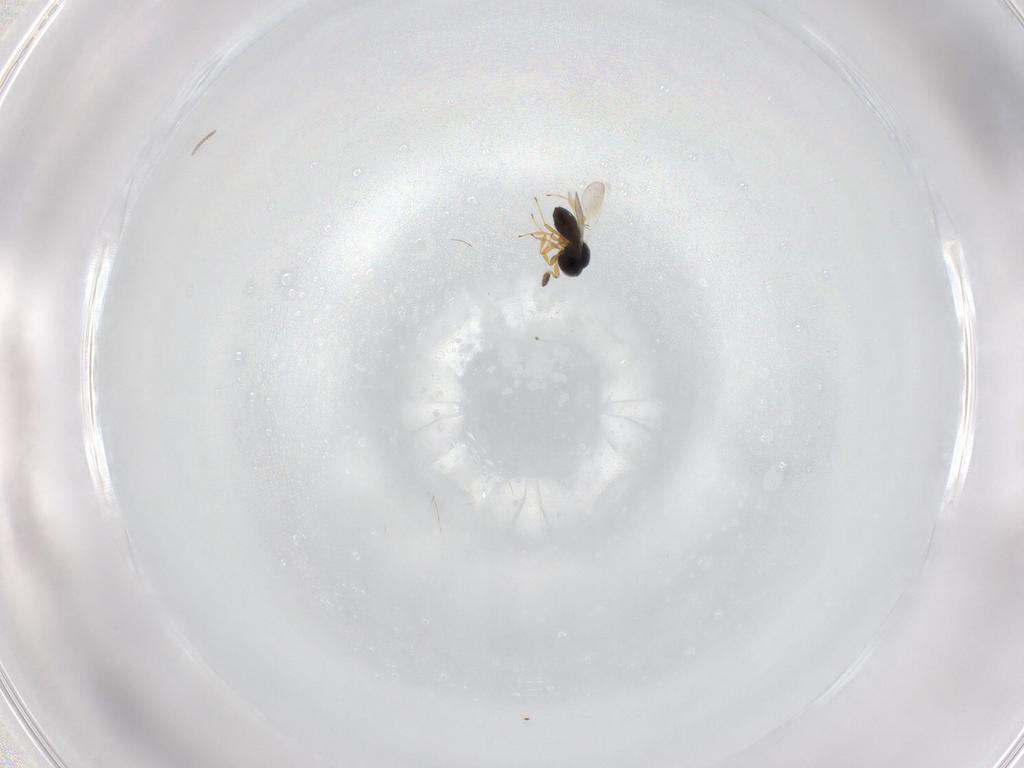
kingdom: Animalia
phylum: Arthropoda
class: Insecta
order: Hymenoptera
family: Platygastridae
